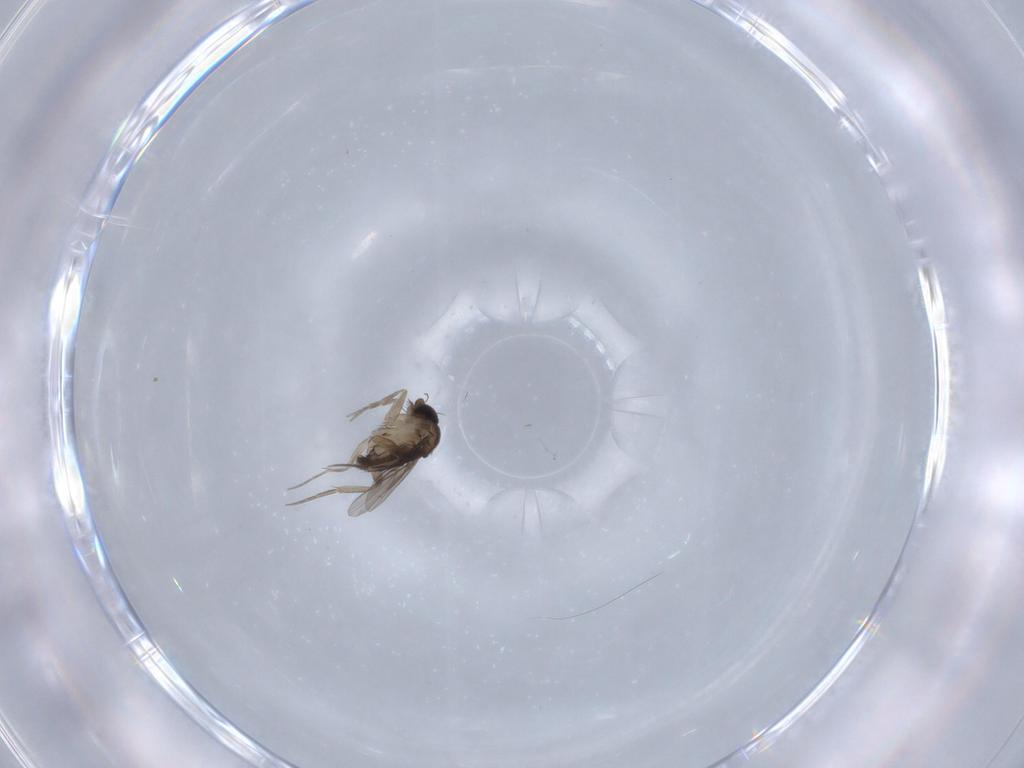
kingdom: Animalia
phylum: Arthropoda
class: Insecta
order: Diptera
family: Phoridae
